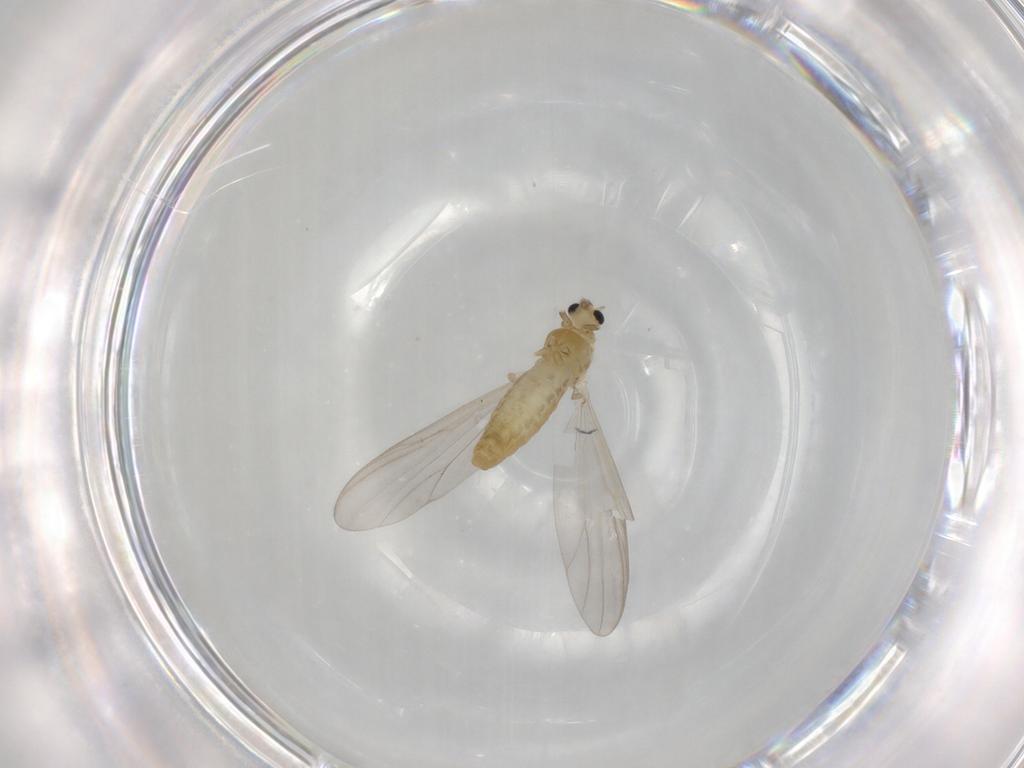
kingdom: Animalia
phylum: Arthropoda
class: Insecta
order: Diptera
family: Chironomidae
